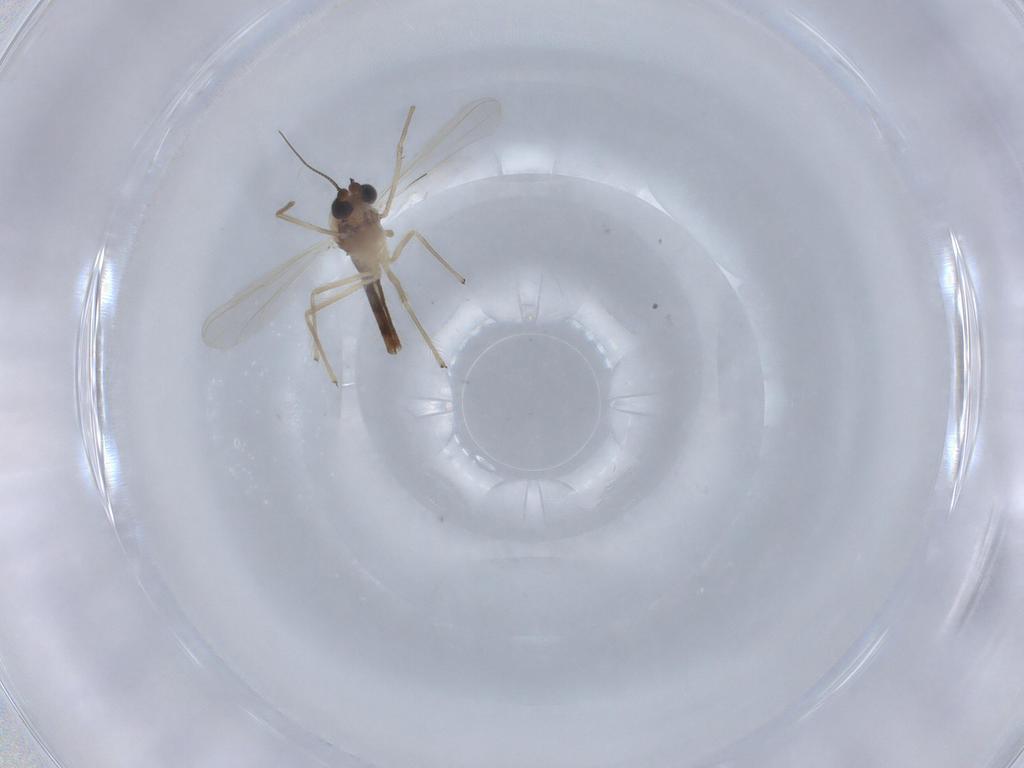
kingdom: Animalia
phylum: Arthropoda
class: Insecta
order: Diptera
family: Chironomidae
